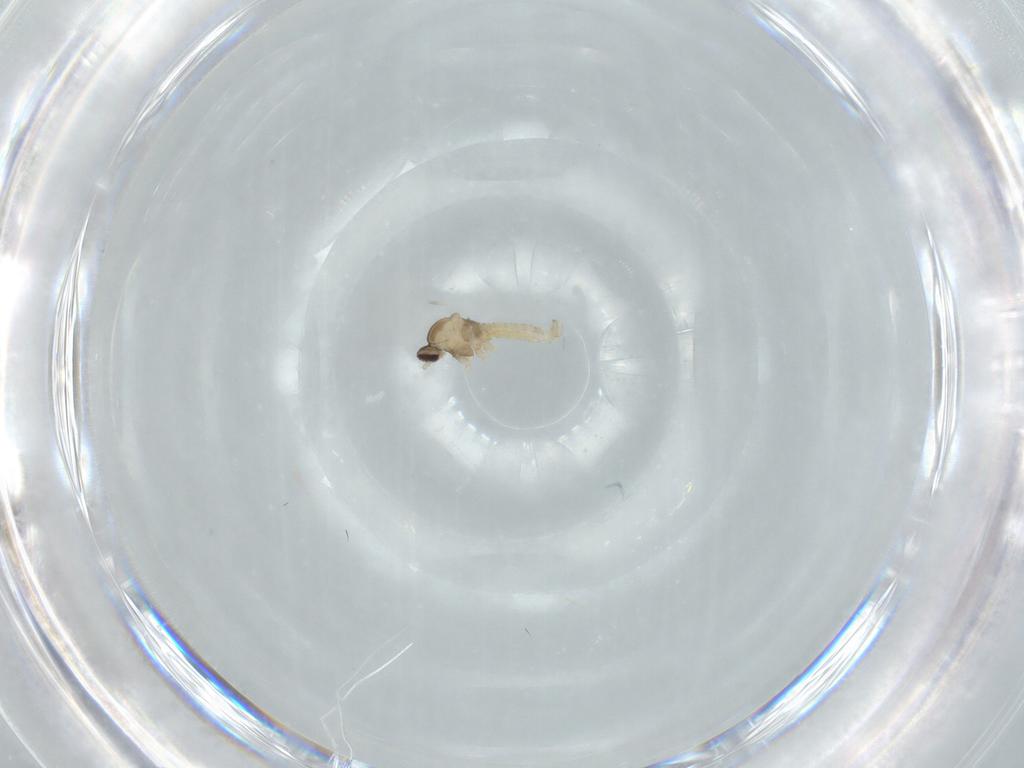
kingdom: Animalia
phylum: Arthropoda
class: Insecta
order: Diptera
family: Cecidomyiidae
